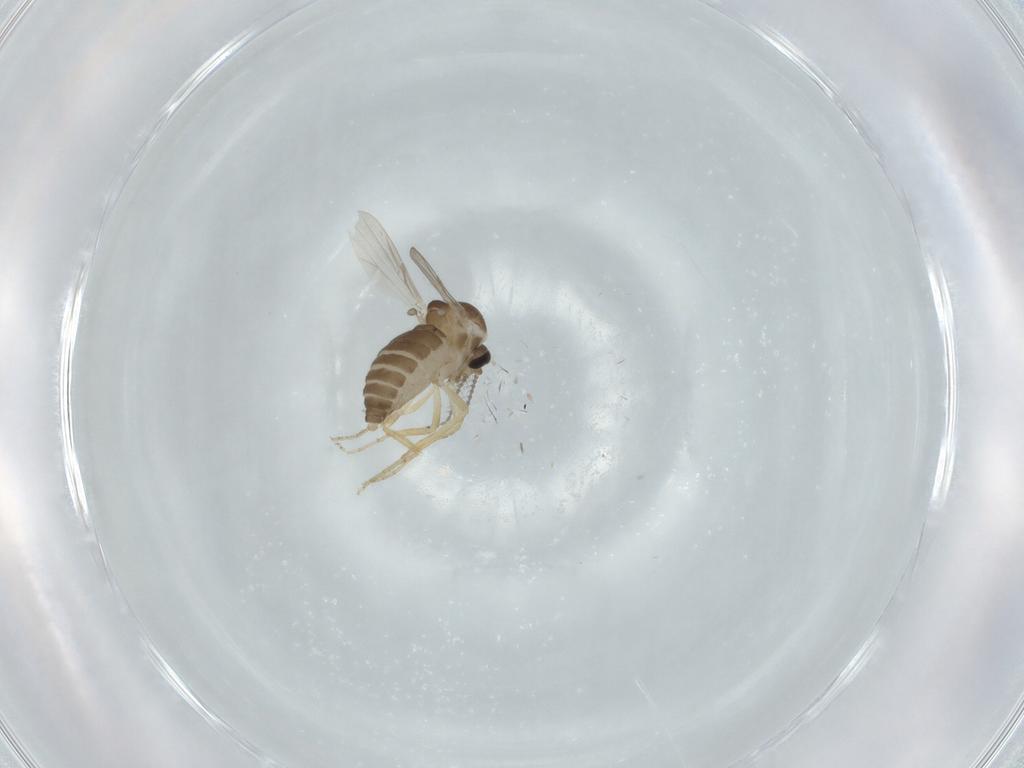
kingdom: Animalia
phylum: Arthropoda
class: Insecta
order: Diptera
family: Ceratopogonidae
